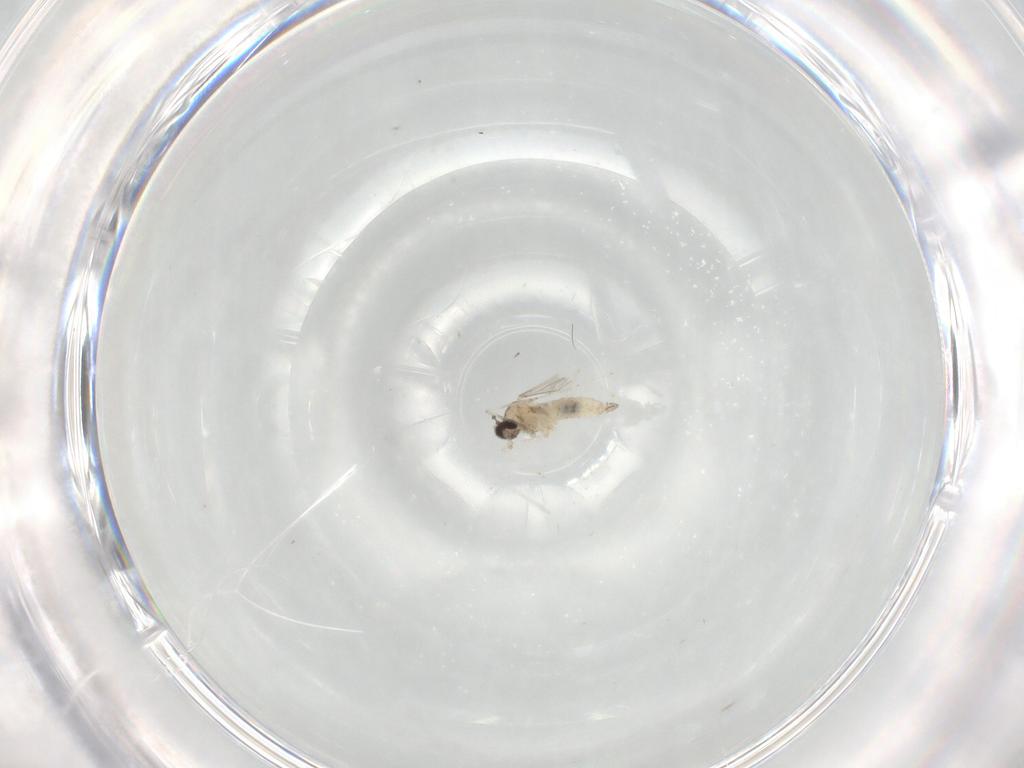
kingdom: Animalia
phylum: Arthropoda
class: Insecta
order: Diptera
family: Cecidomyiidae
